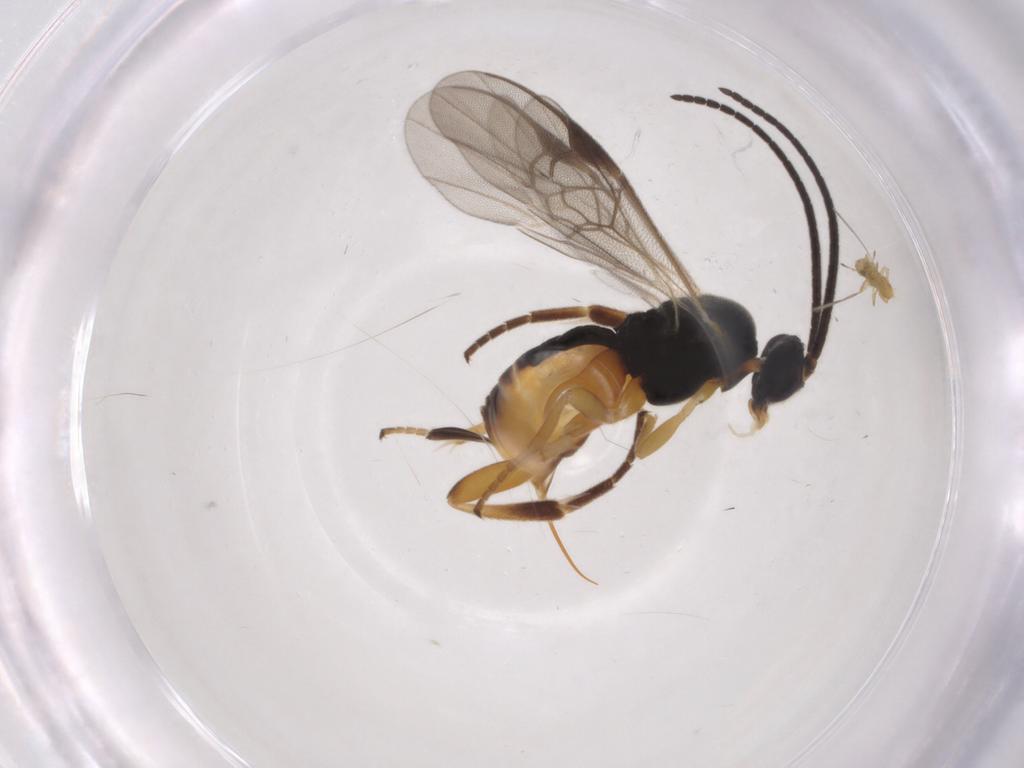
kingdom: Animalia
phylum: Arthropoda
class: Insecta
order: Hymenoptera
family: Braconidae
